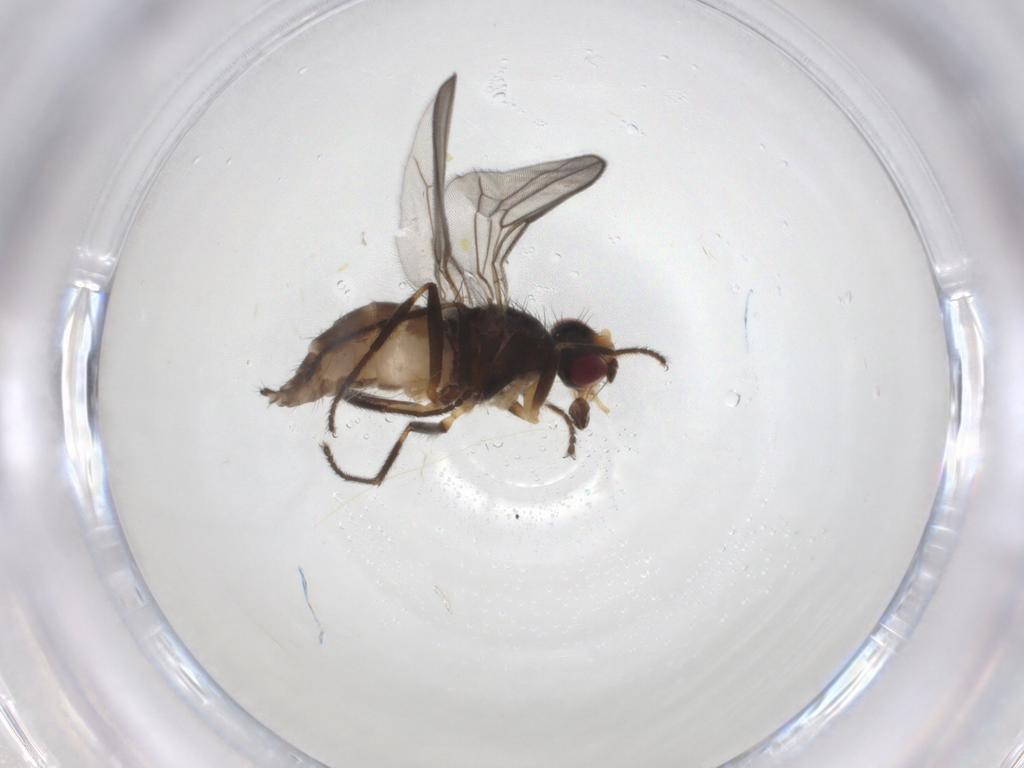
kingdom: Animalia
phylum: Arthropoda
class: Insecta
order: Diptera
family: Chloropidae
